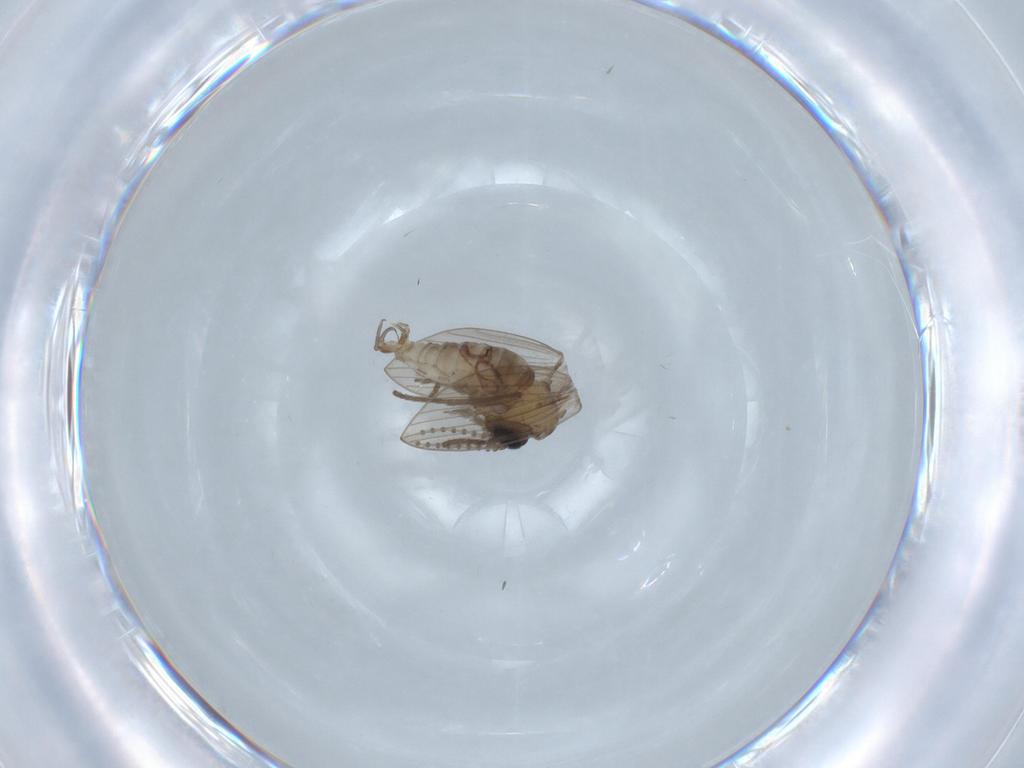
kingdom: Animalia
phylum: Arthropoda
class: Insecta
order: Diptera
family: Psychodidae
